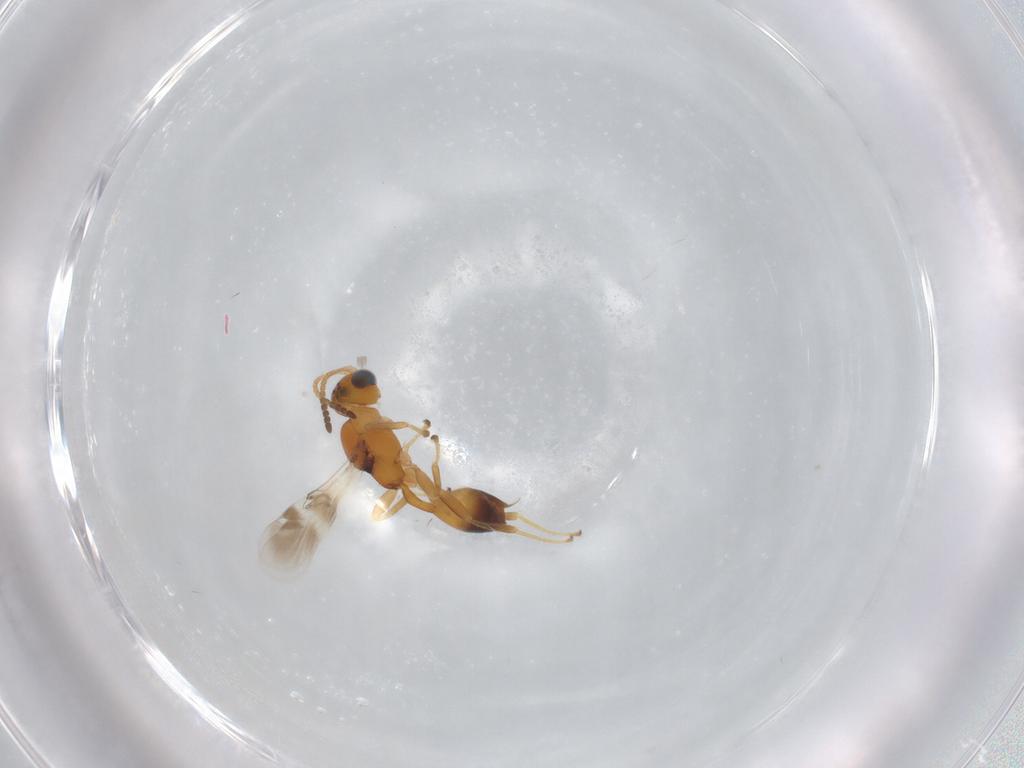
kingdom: Animalia
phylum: Arthropoda
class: Insecta
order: Hymenoptera
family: Braconidae
